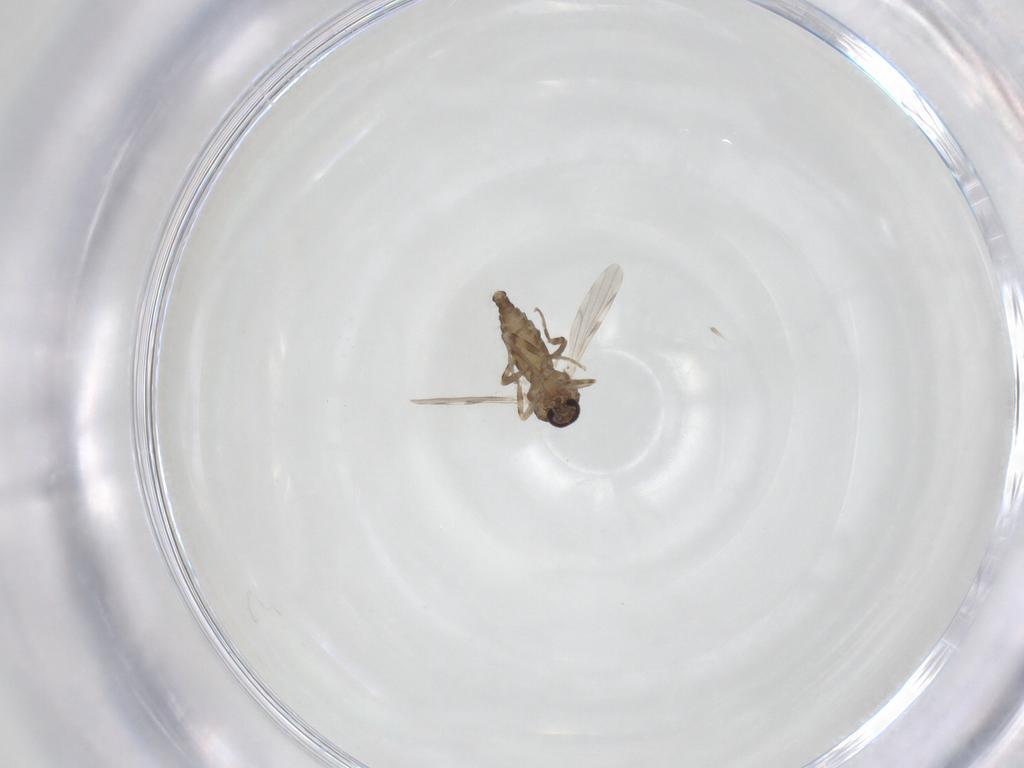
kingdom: Animalia
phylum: Arthropoda
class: Insecta
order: Diptera
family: Ceratopogonidae
